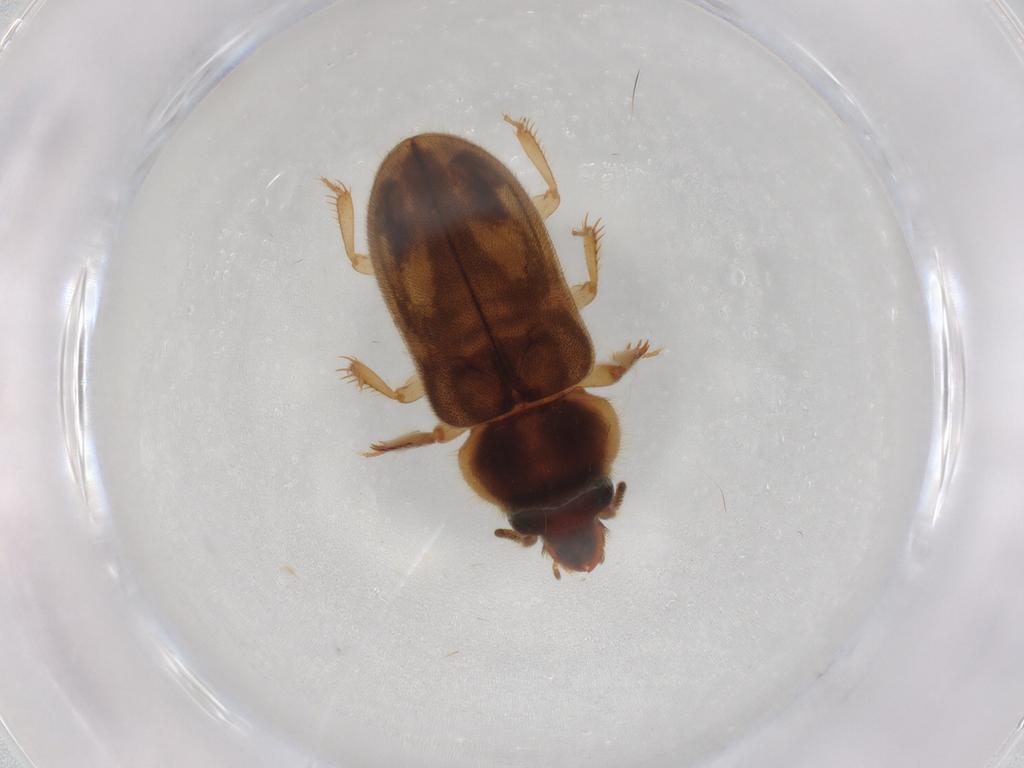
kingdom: Animalia
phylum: Arthropoda
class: Insecta
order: Coleoptera
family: Heteroceridae
